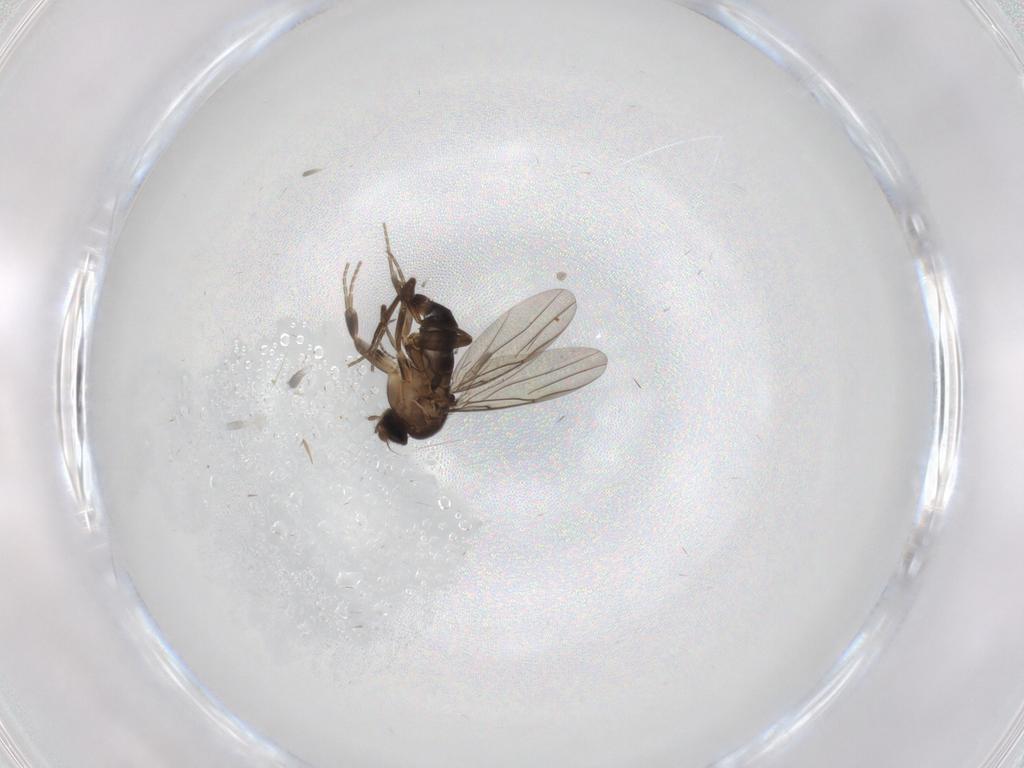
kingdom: Animalia
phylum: Arthropoda
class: Insecta
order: Diptera
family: Phoridae
